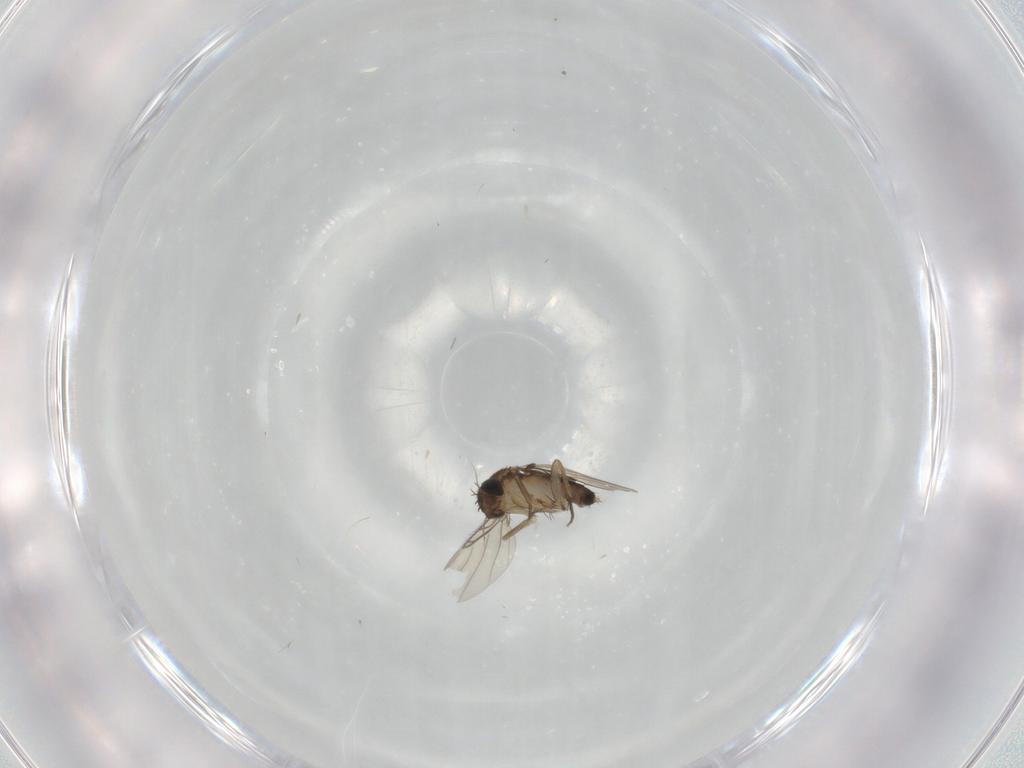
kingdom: Animalia
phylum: Arthropoda
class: Insecta
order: Diptera
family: Phoridae
